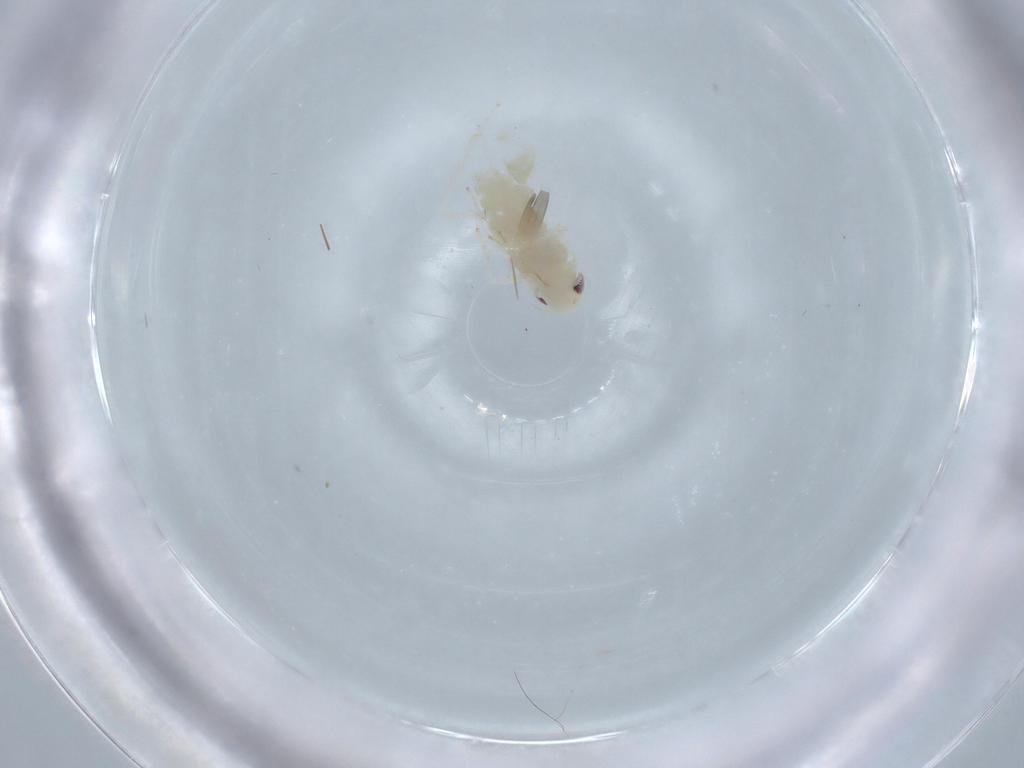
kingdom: Animalia
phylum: Arthropoda
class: Insecta
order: Hemiptera
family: Cicadellidae
